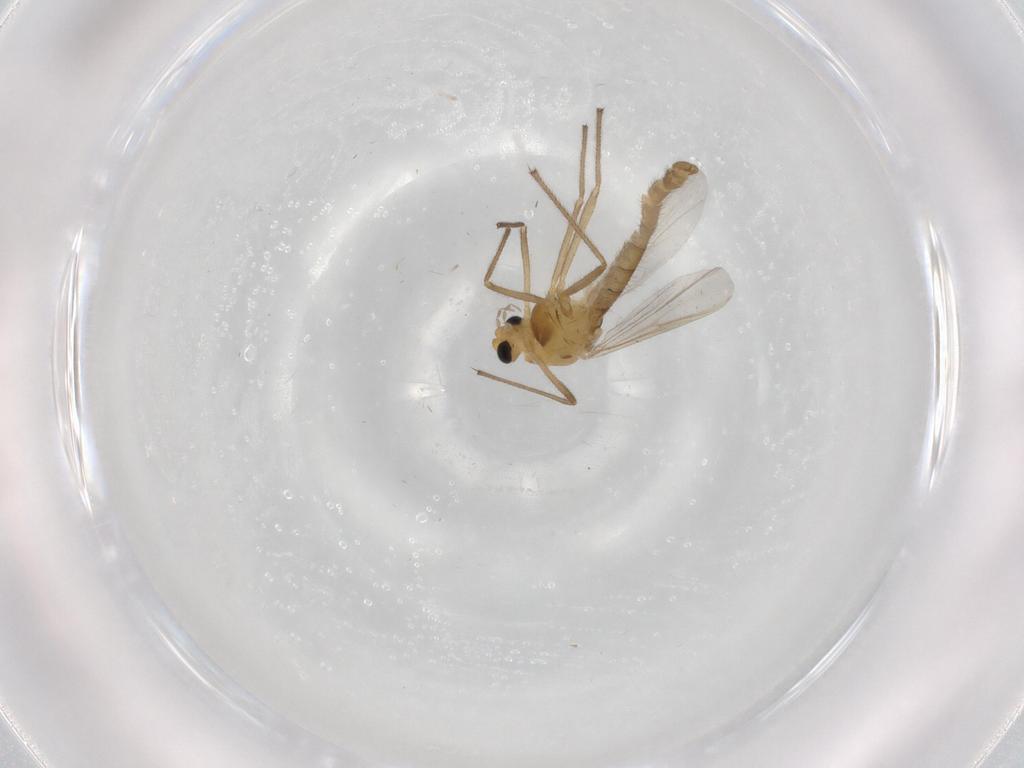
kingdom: Animalia
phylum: Arthropoda
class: Insecta
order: Diptera
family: Chironomidae
